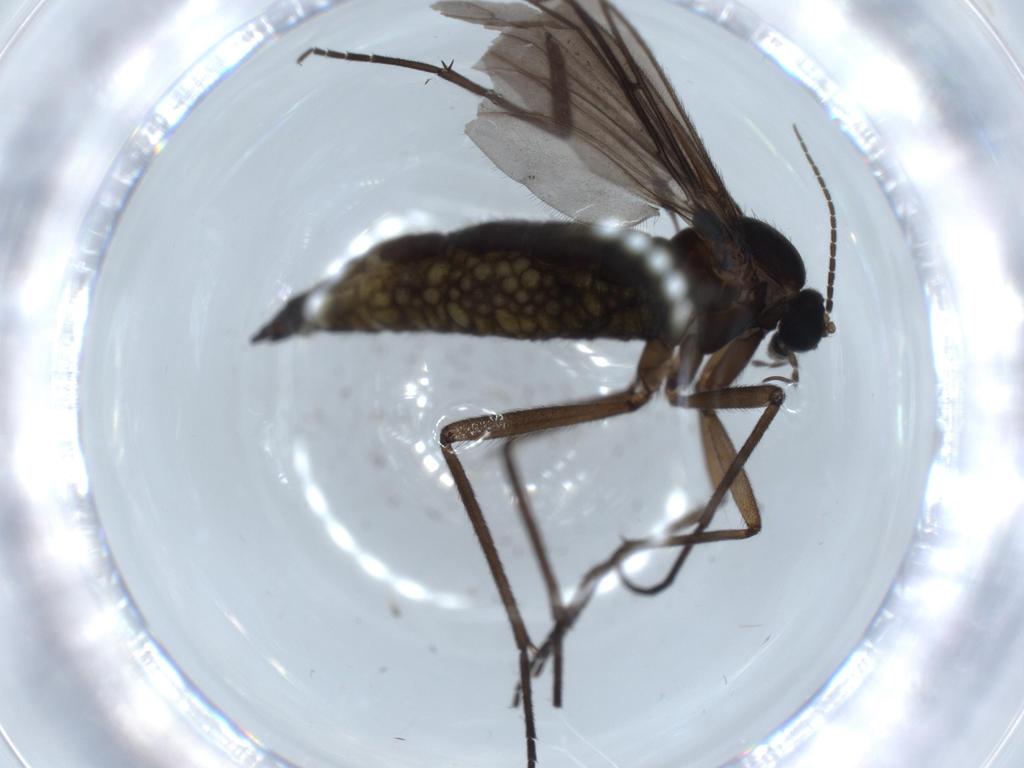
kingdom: Animalia
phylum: Arthropoda
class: Insecta
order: Diptera
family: Sciaridae
